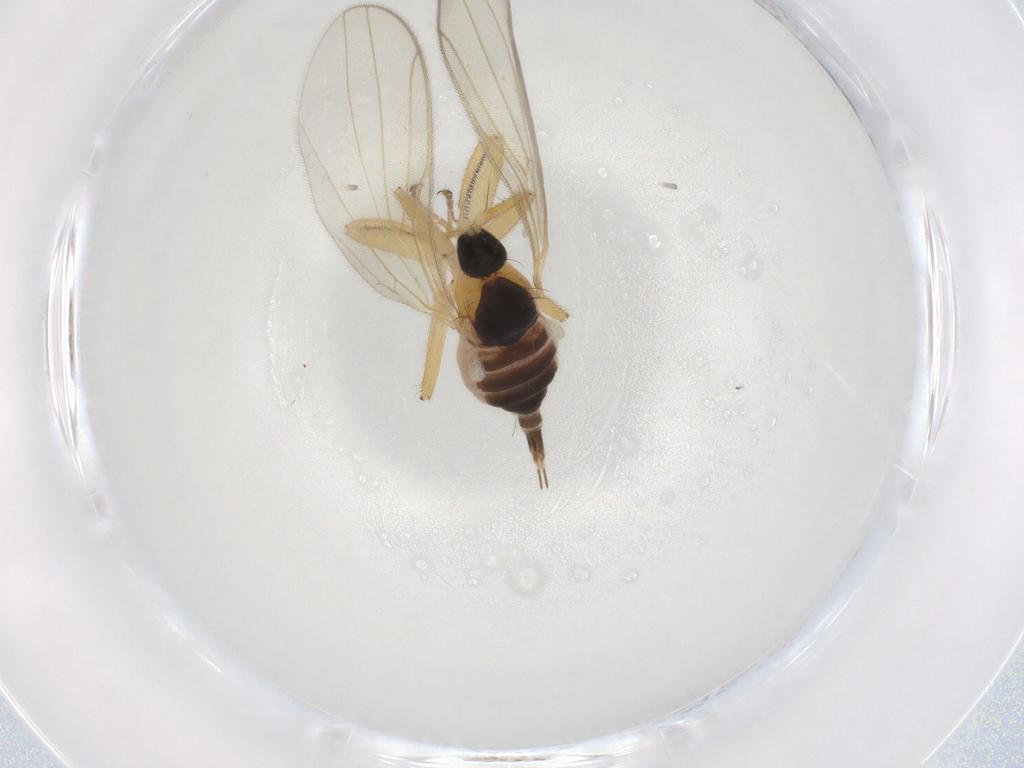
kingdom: Animalia
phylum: Arthropoda
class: Insecta
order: Diptera
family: Cecidomyiidae
